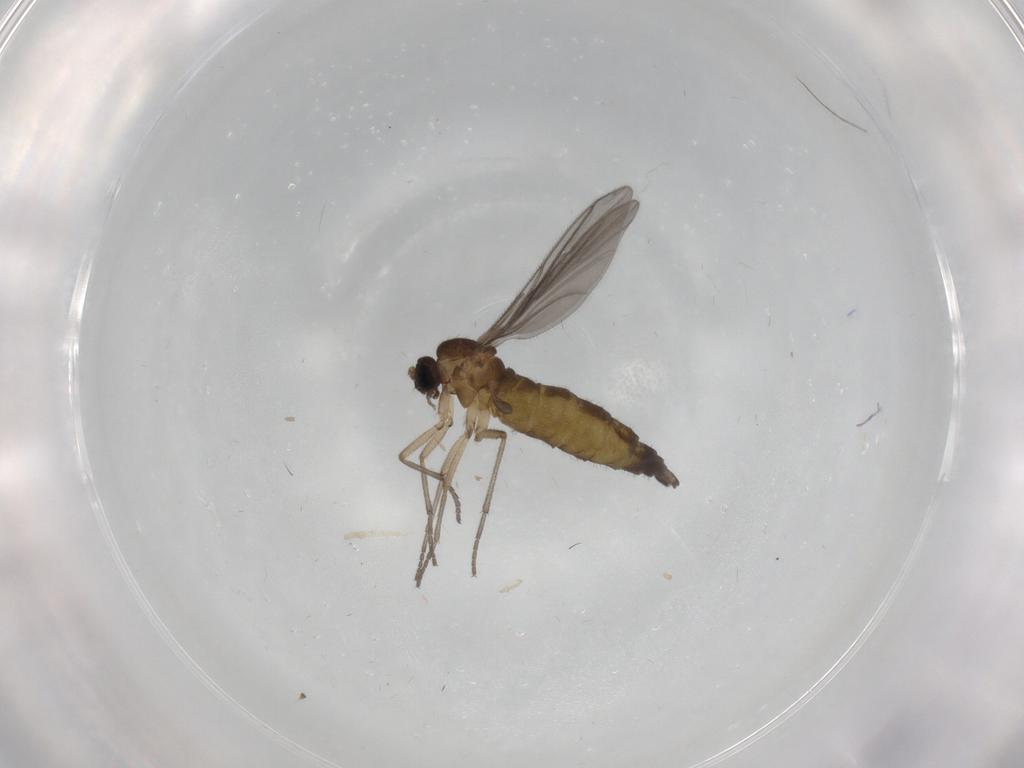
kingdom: Animalia
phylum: Arthropoda
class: Insecta
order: Diptera
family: Sciaridae
